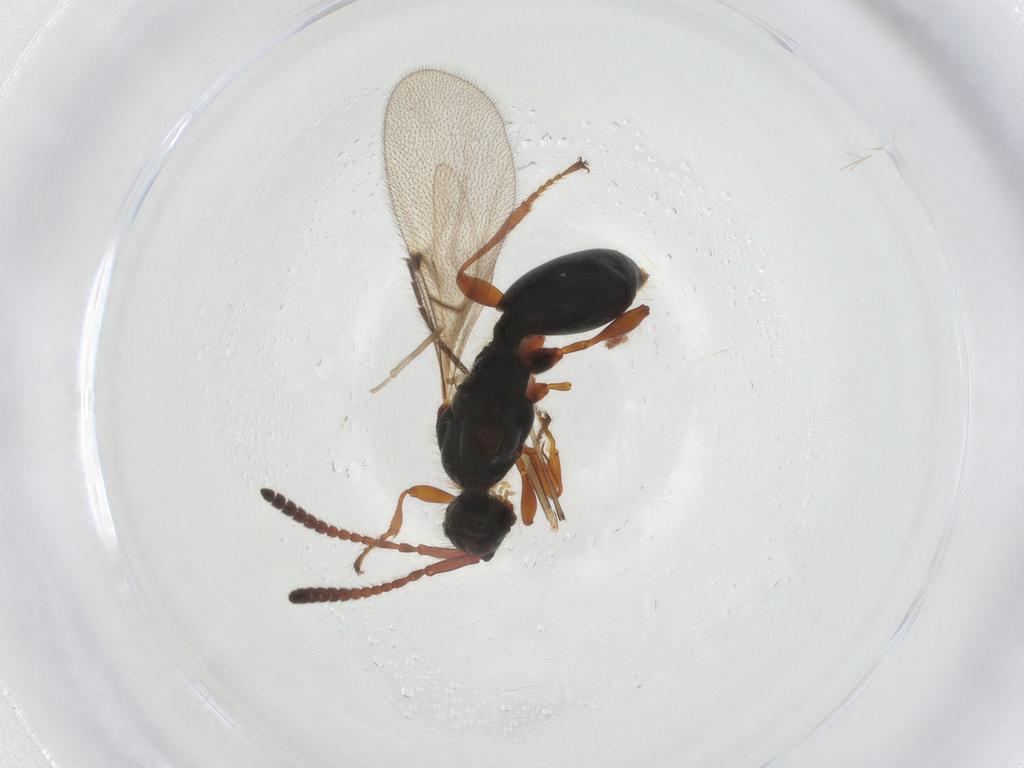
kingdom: Animalia
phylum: Arthropoda
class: Insecta
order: Hymenoptera
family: Diapriidae
